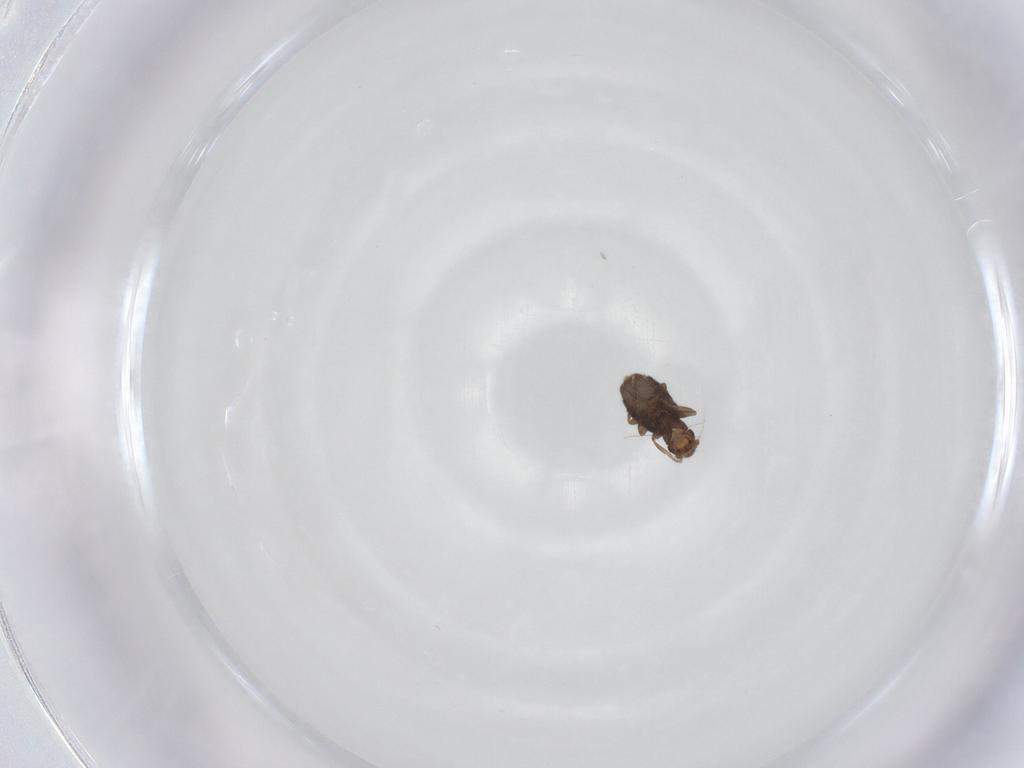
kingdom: Animalia
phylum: Arthropoda
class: Insecta
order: Diptera
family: Phoridae
